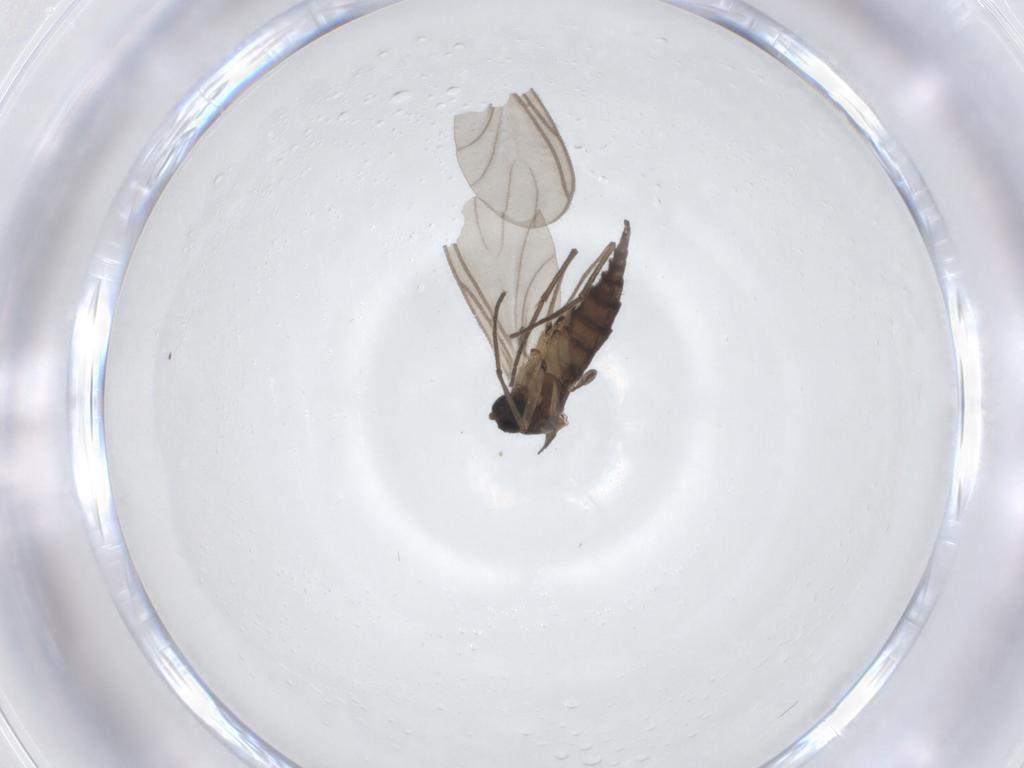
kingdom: Animalia
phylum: Arthropoda
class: Insecta
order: Diptera
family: Sciaridae
